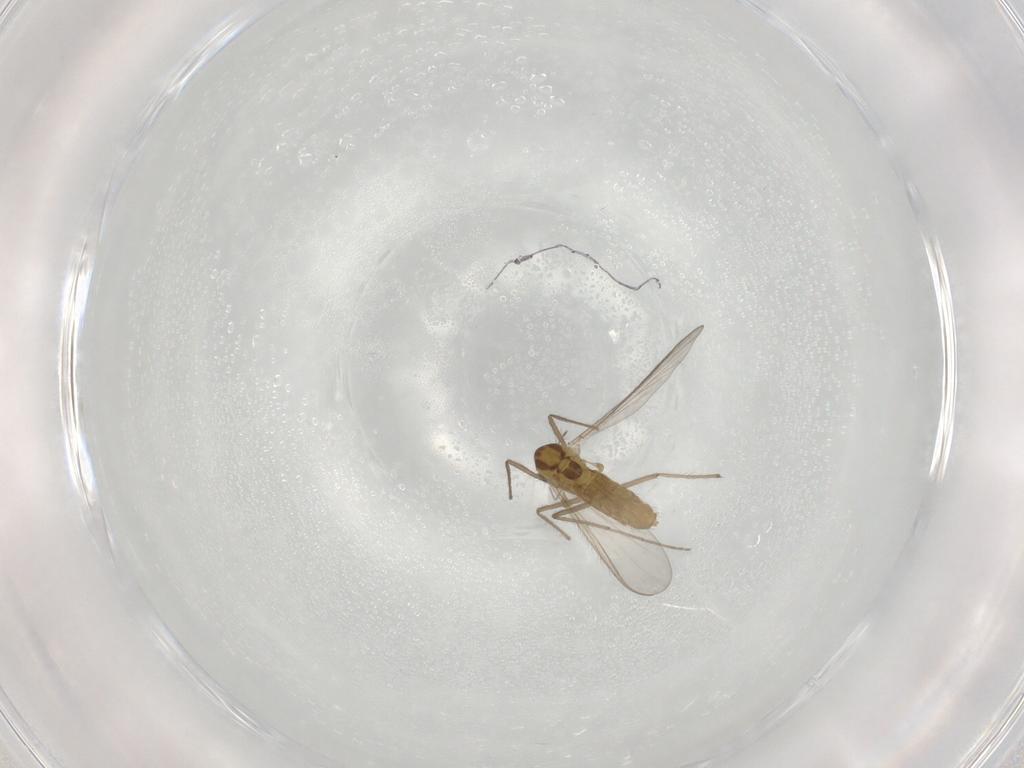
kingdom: Animalia
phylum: Arthropoda
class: Insecta
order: Diptera
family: Chironomidae
